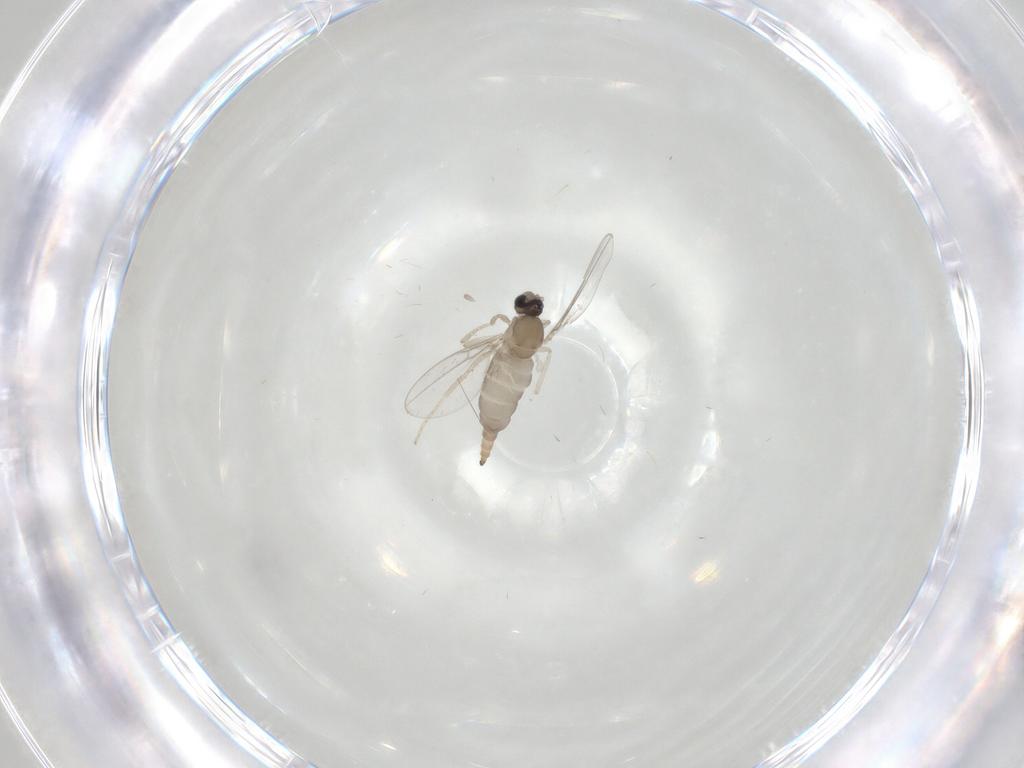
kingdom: Animalia
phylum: Arthropoda
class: Insecta
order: Diptera
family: Cecidomyiidae
